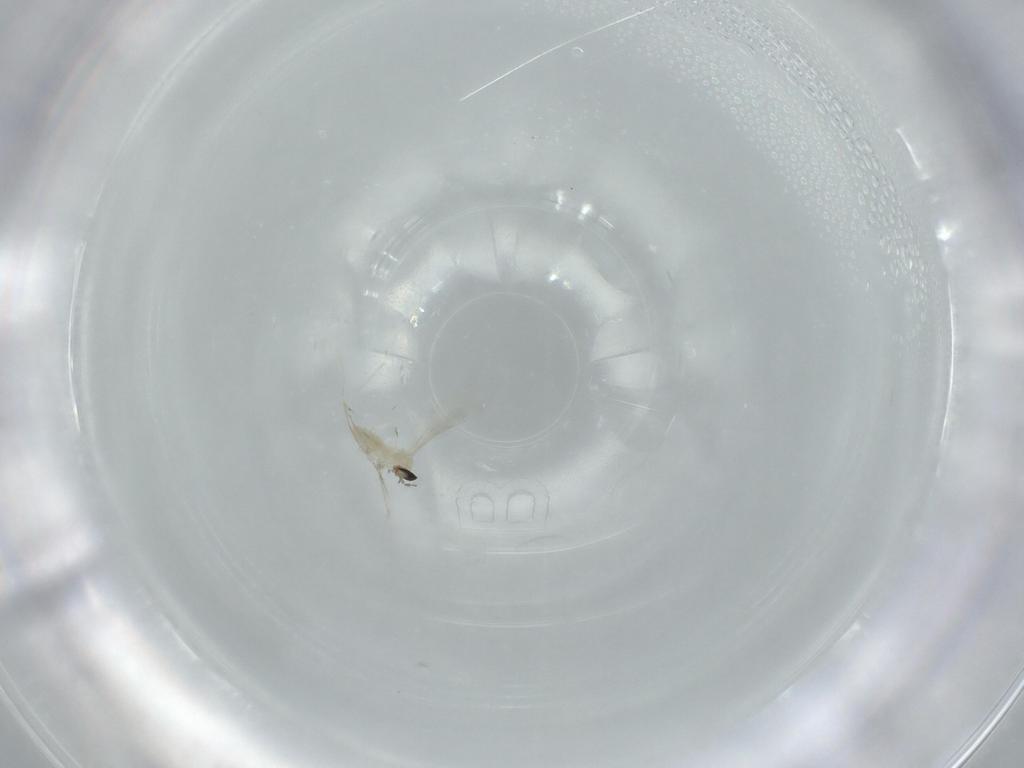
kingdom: Animalia
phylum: Arthropoda
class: Insecta
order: Diptera
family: Cecidomyiidae
